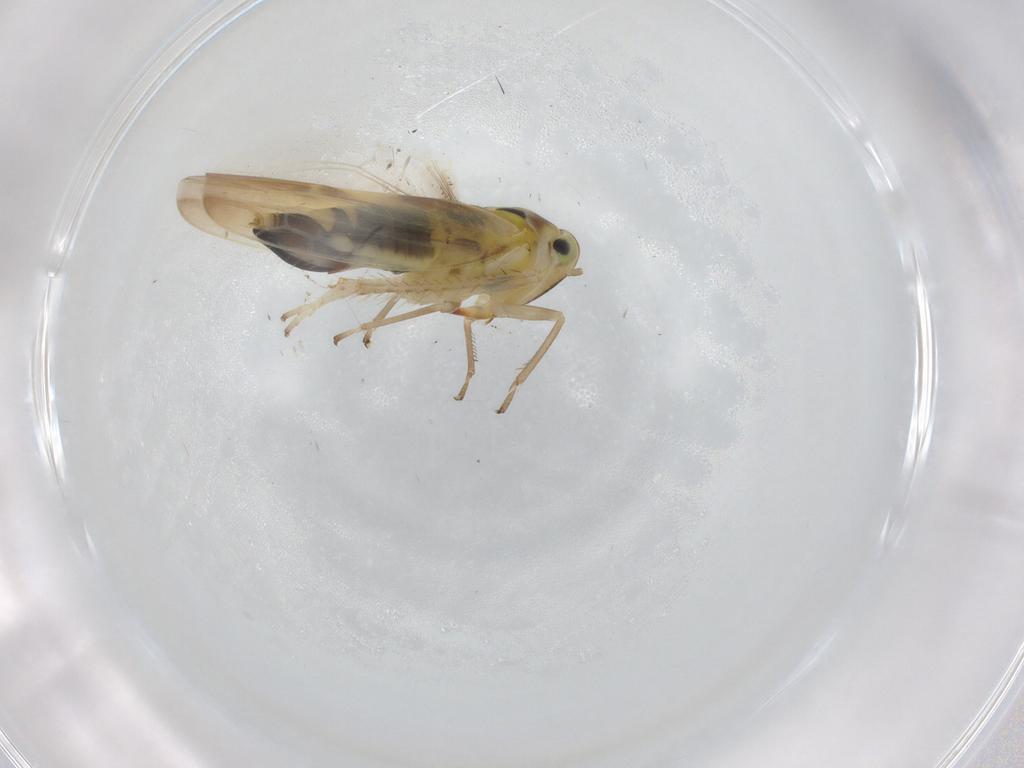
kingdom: Animalia
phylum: Arthropoda
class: Insecta
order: Hemiptera
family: Cicadellidae
